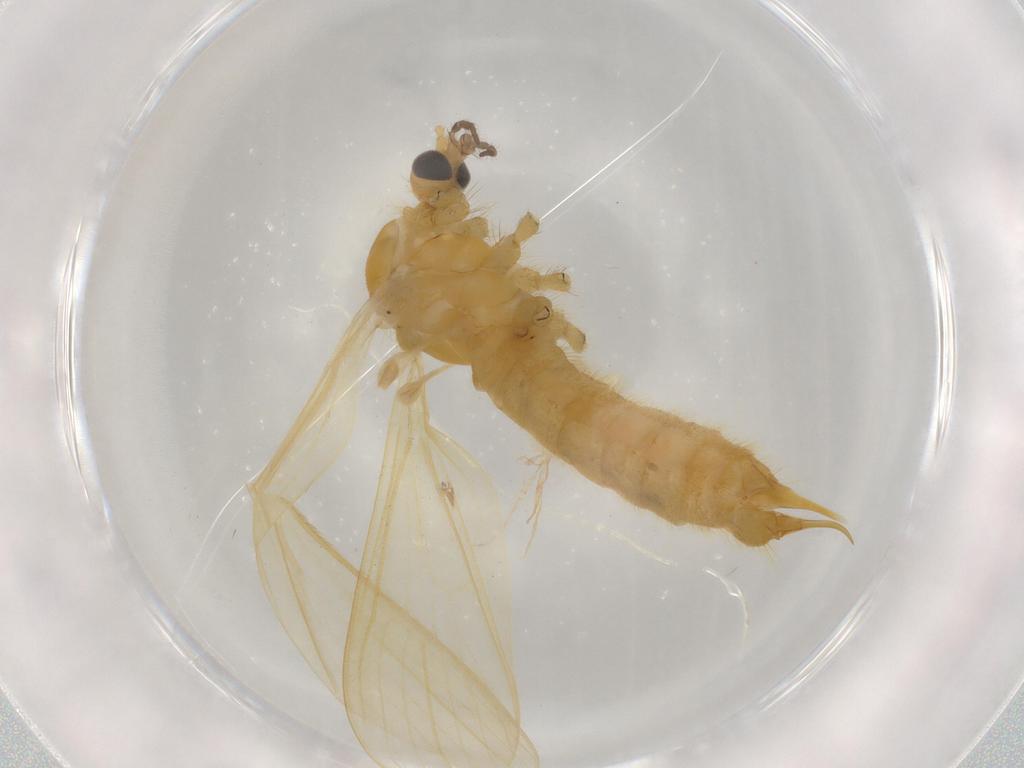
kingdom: Animalia
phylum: Arthropoda
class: Insecta
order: Diptera
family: Limoniidae
